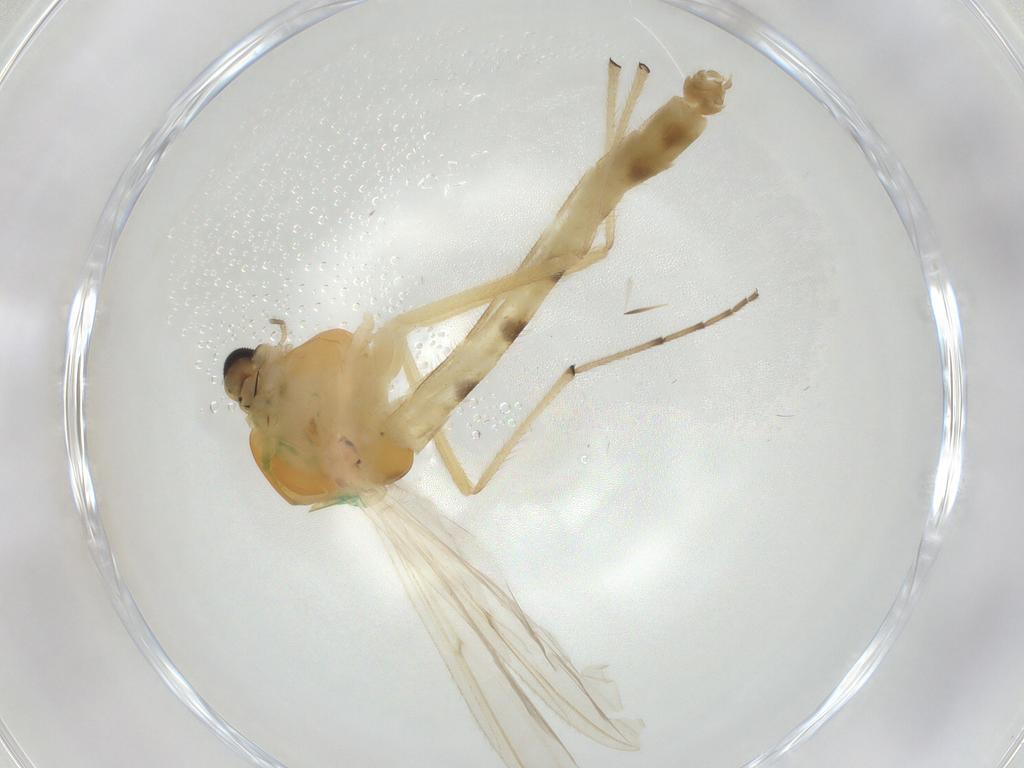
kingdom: Animalia
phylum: Arthropoda
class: Insecta
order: Diptera
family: Chironomidae
